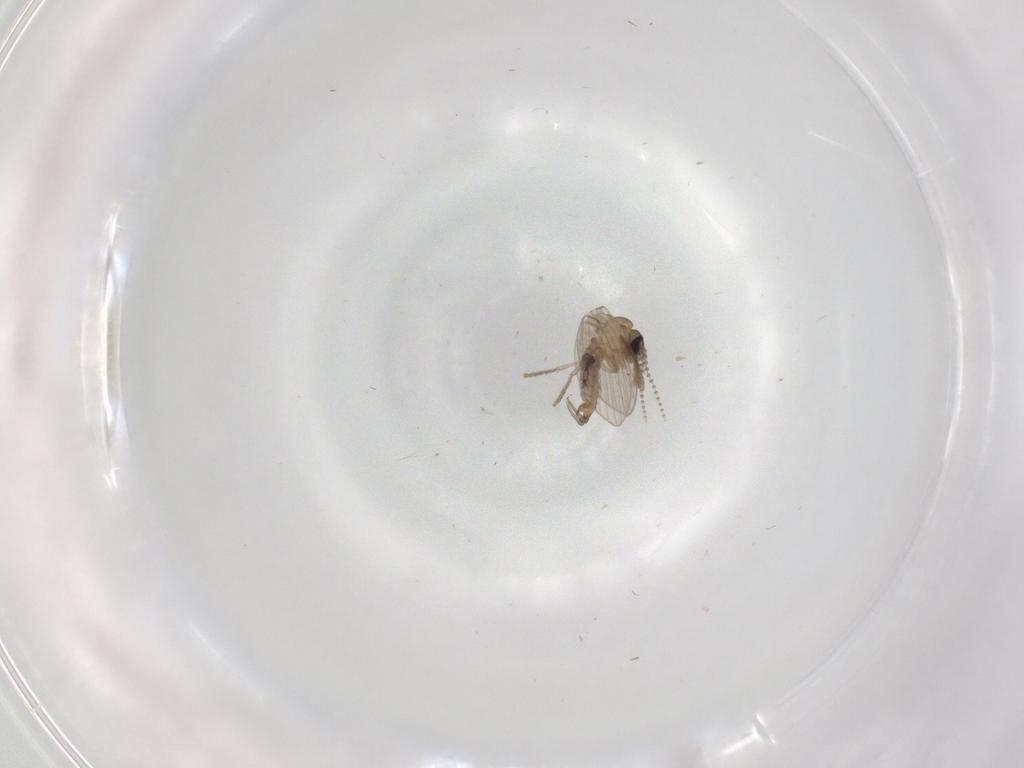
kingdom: Animalia
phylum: Arthropoda
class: Insecta
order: Diptera
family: Psychodidae
